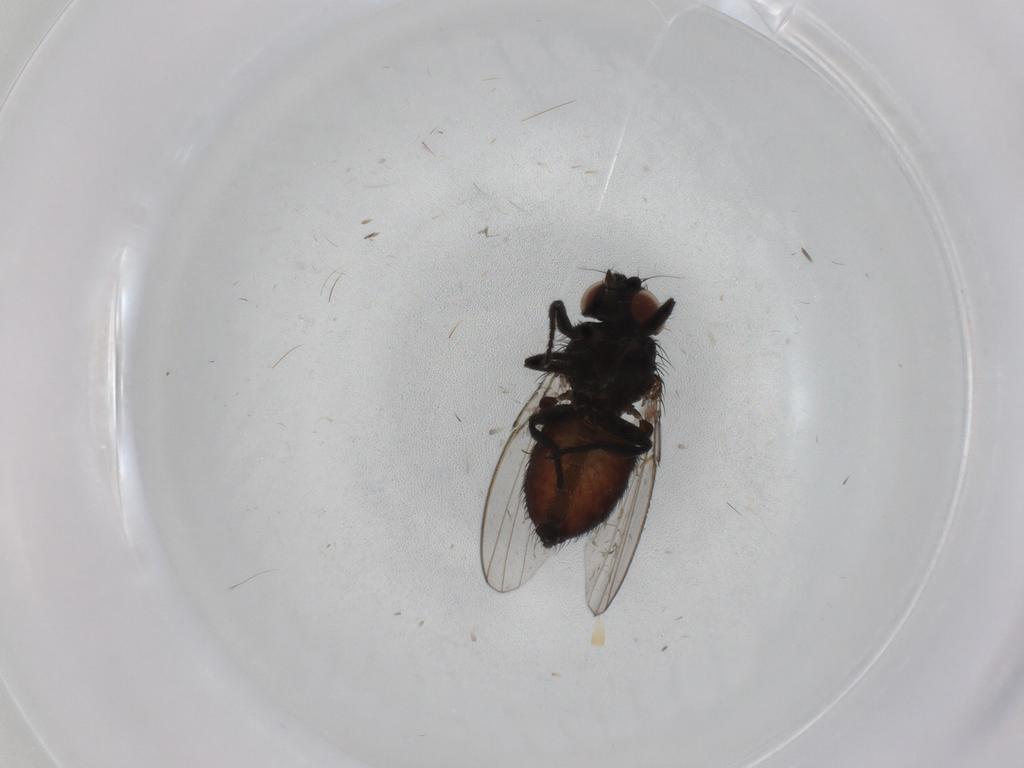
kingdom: Animalia
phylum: Arthropoda
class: Insecta
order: Diptera
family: Milichiidae
